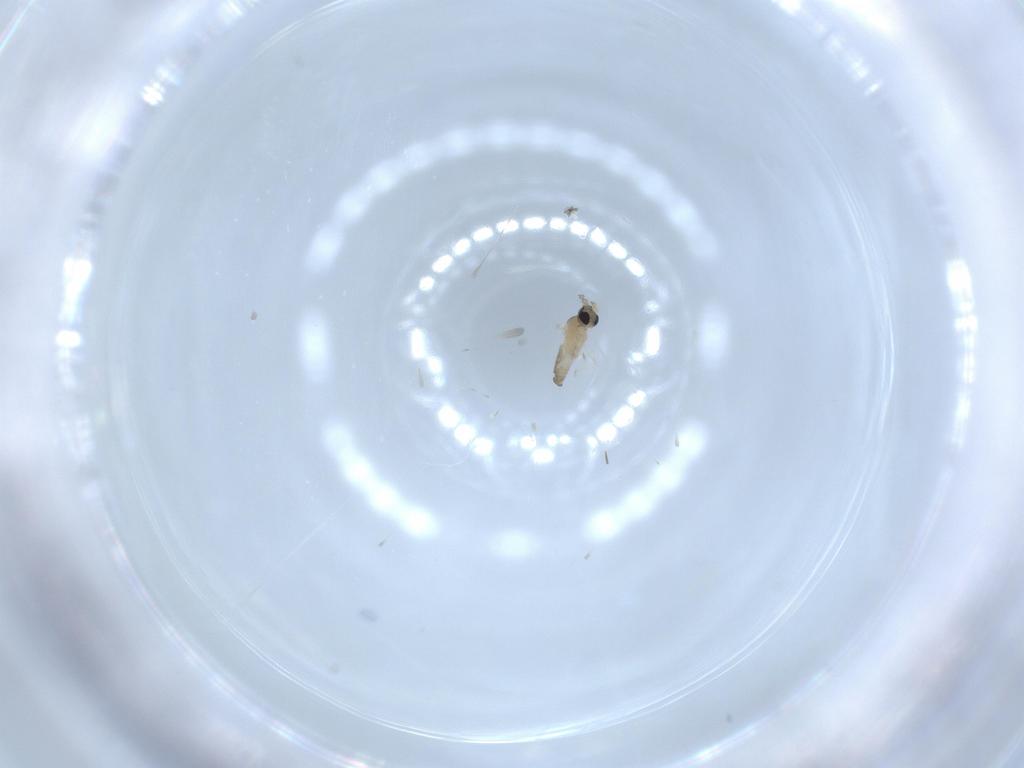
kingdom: Animalia
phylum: Arthropoda
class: Insecta
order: Diptera
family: Cecidomyiidae
